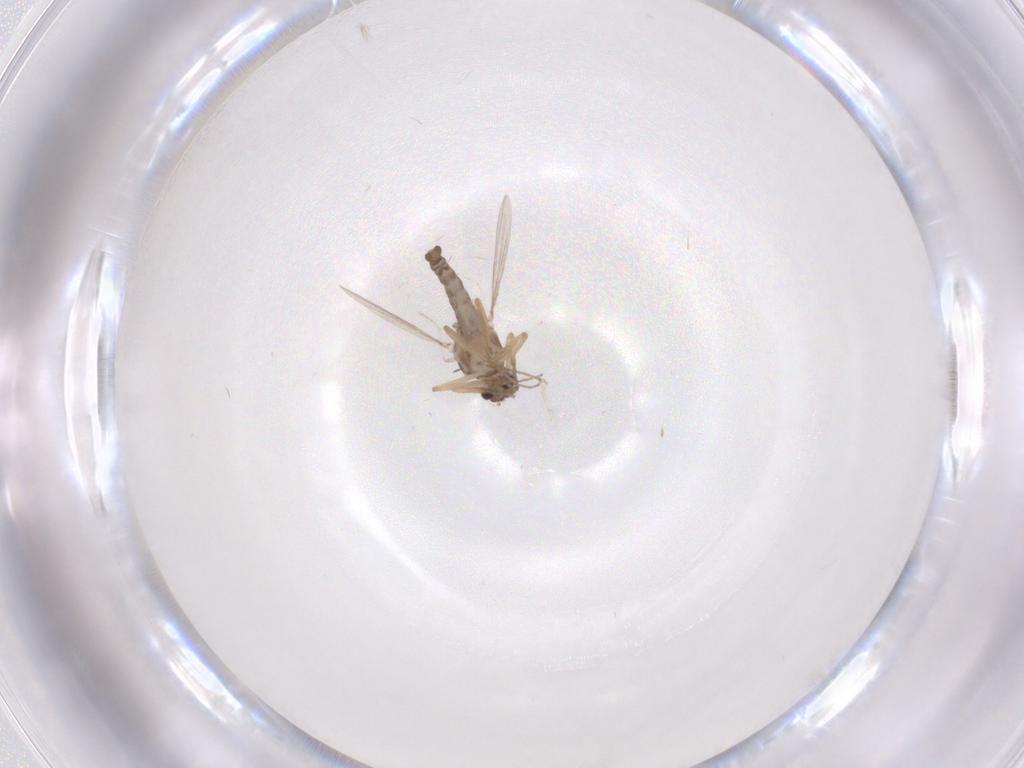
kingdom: Animalia
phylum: Arthropoda
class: Insecta
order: Diptera
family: Ceratopogonidae
